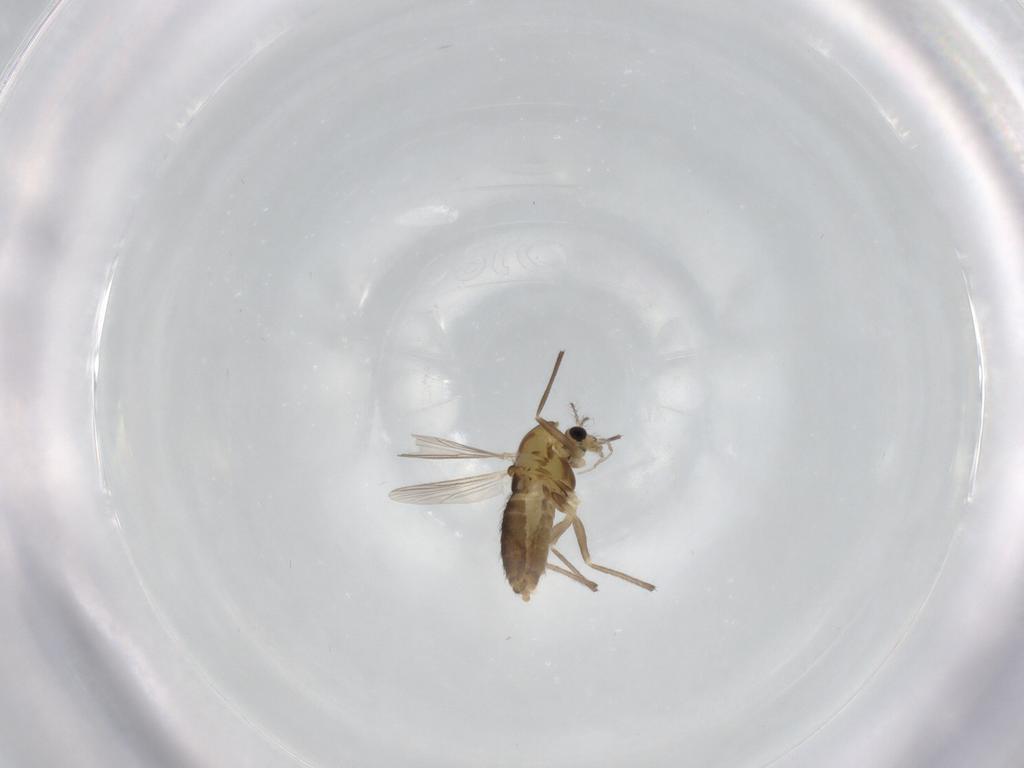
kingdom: Animalia
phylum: Arthropoda
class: Insecta
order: Diptera
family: Chironomidae
